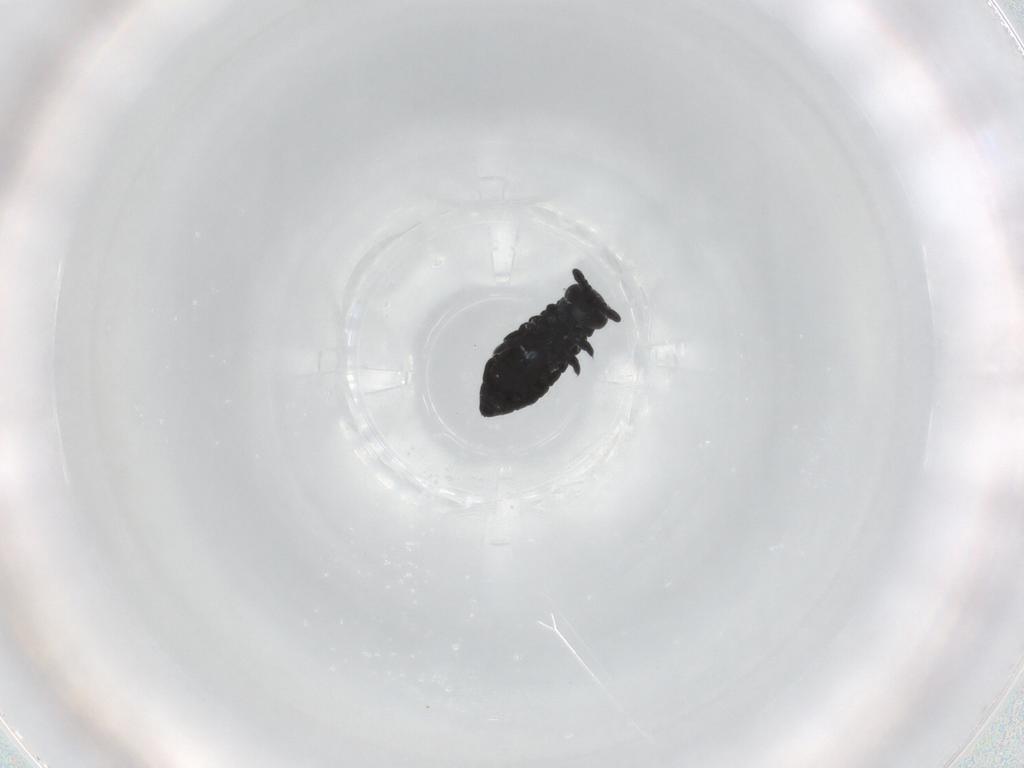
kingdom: Animalia
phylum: Arthropoda
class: Collembola
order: Poduromorpha
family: Hypogastruridae
